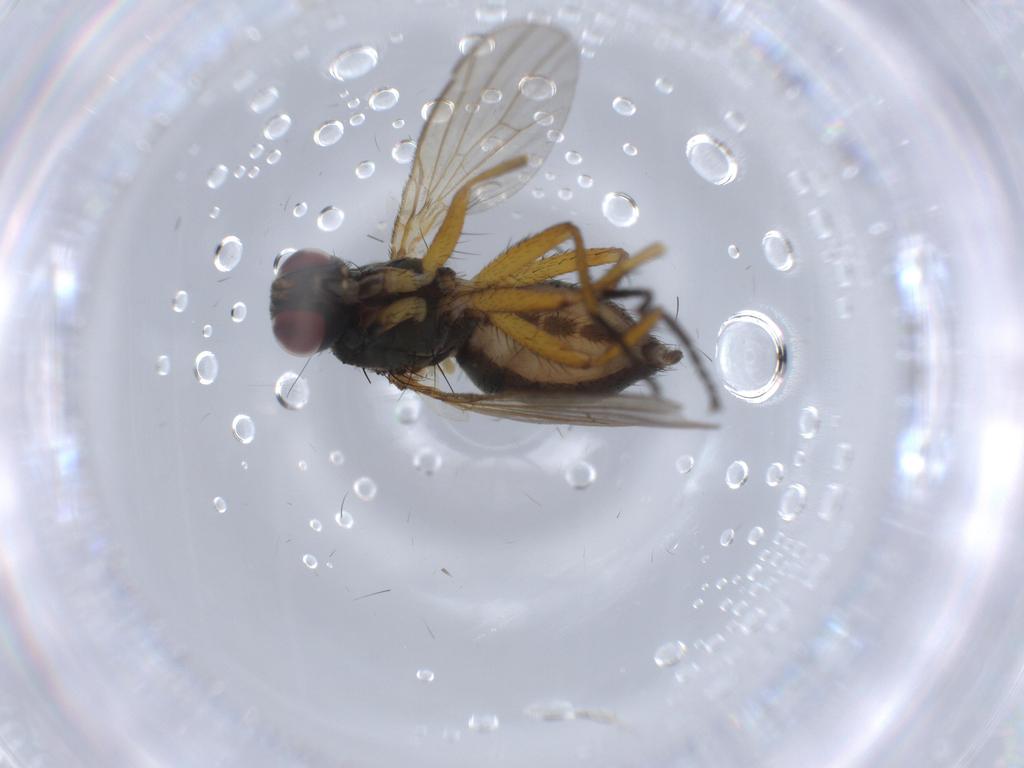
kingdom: Animalia
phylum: Arthropoda
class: Insecta
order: Diptera
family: Muscidae
